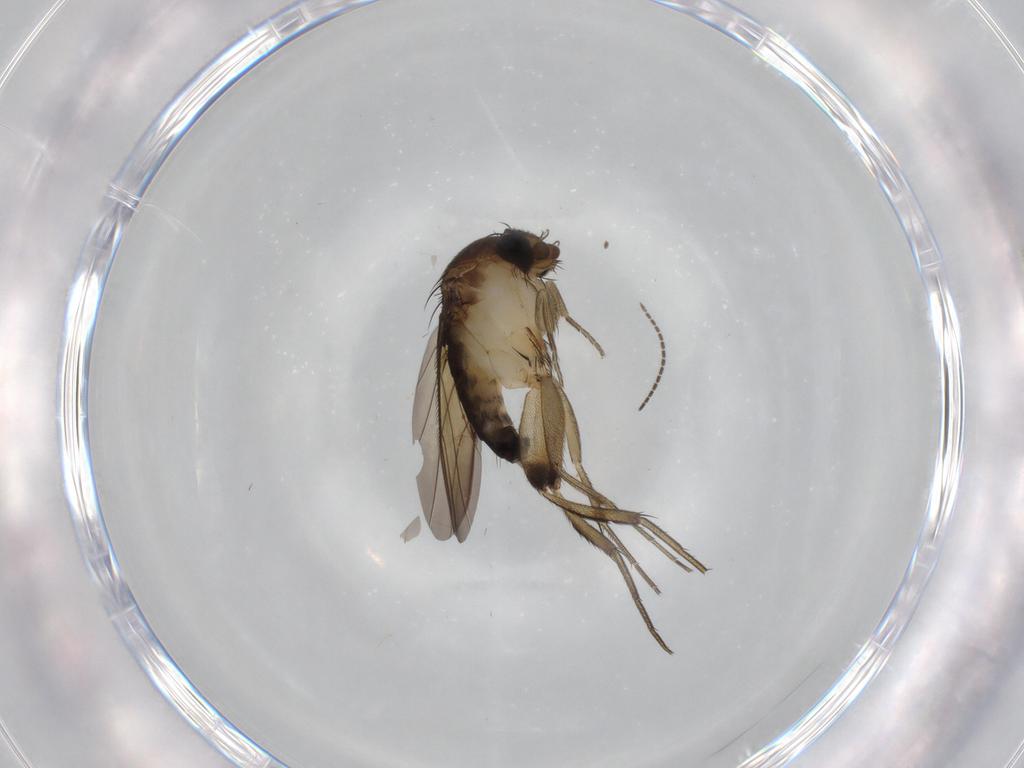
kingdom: Animalia
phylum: Arthropoda
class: Insecta
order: Diptera
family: Sciaridae
